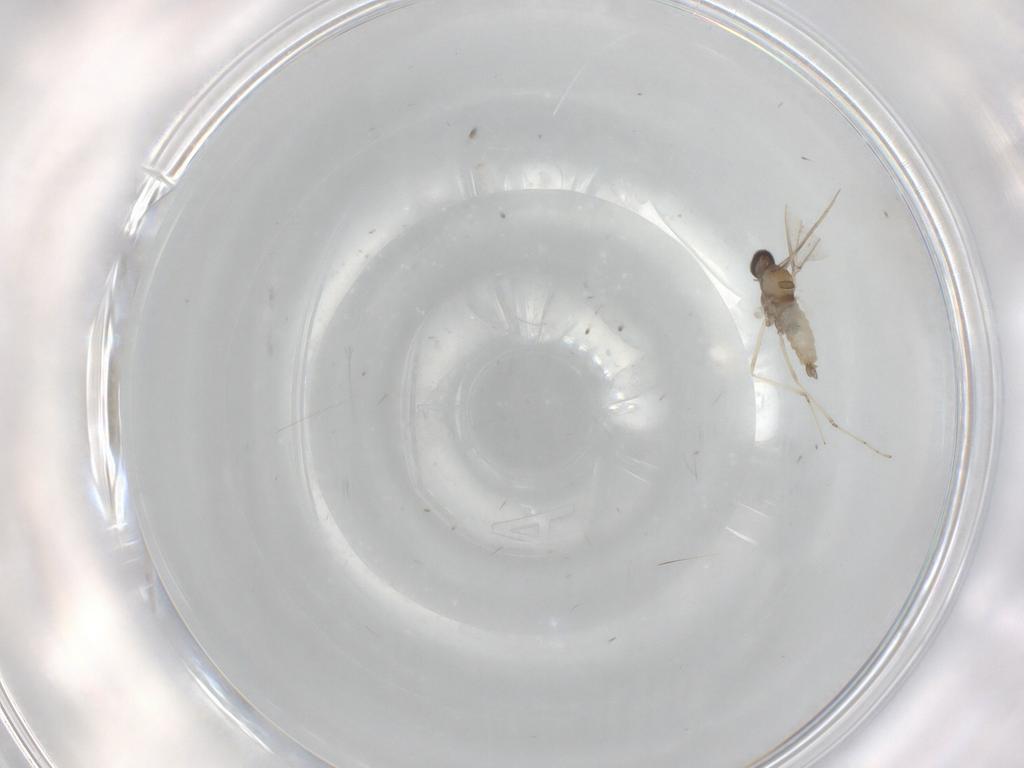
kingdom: Animalia
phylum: Arthropoda
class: Insecta
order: Diptera
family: Cecidomyiidae
